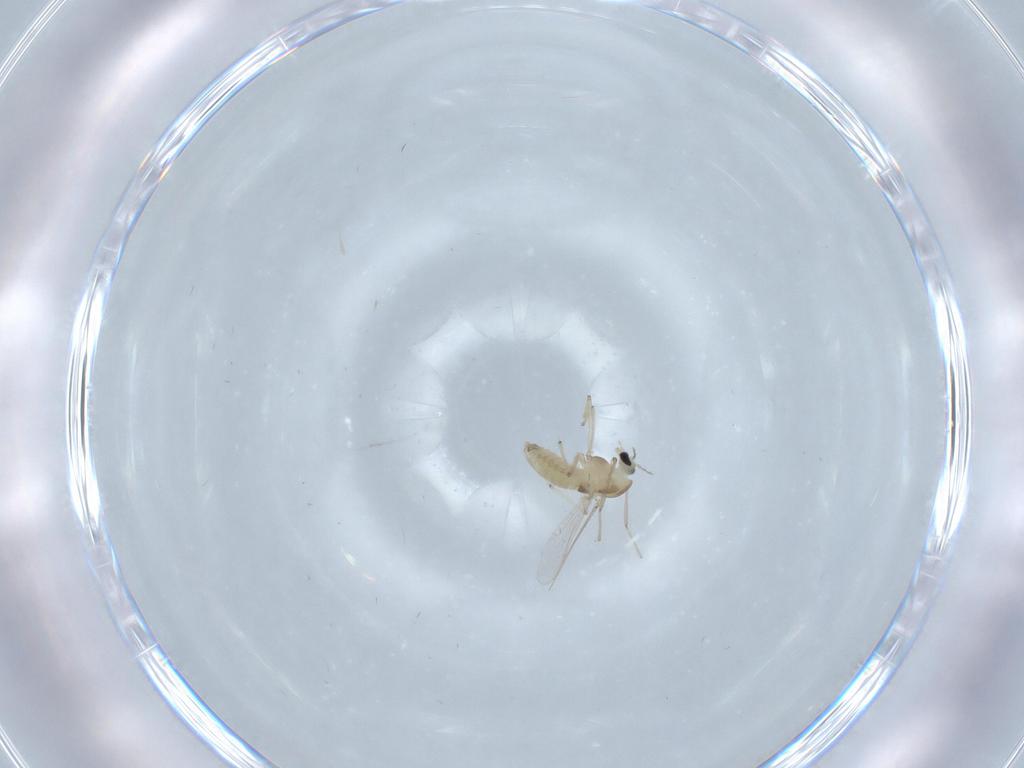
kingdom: Animalia
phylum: Arthropoda
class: Insecta
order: Diptera
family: Chironomidae
